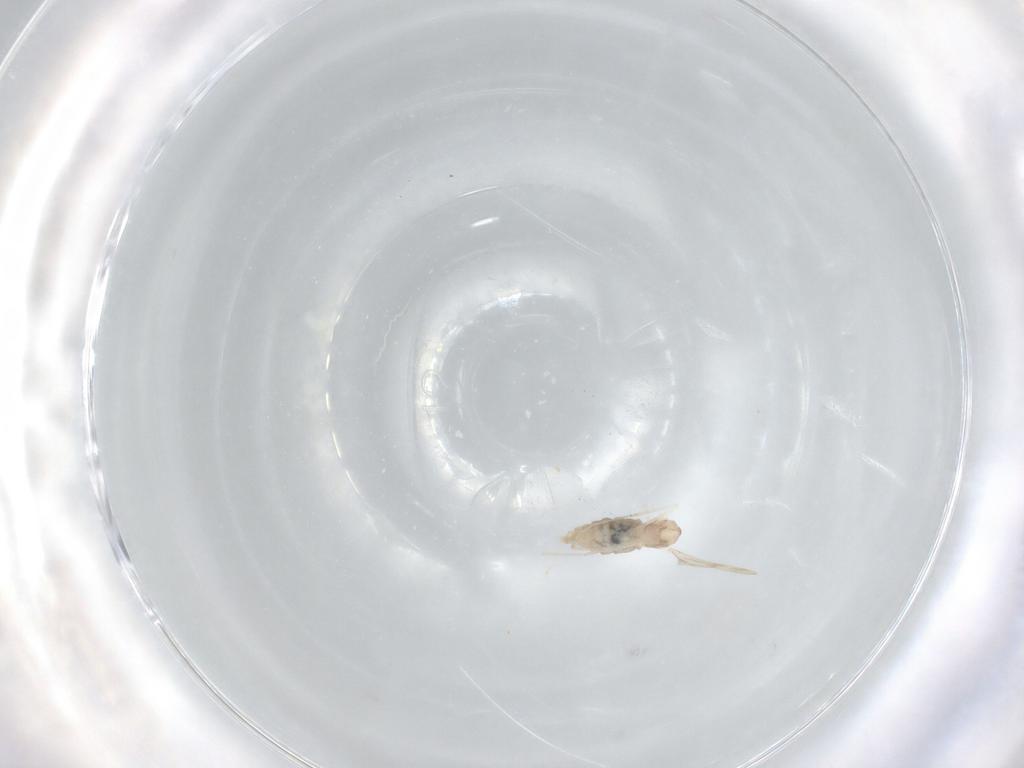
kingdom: Animalia
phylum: Arthropoda
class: Insecta
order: Diptera
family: Cecidomyiidae
